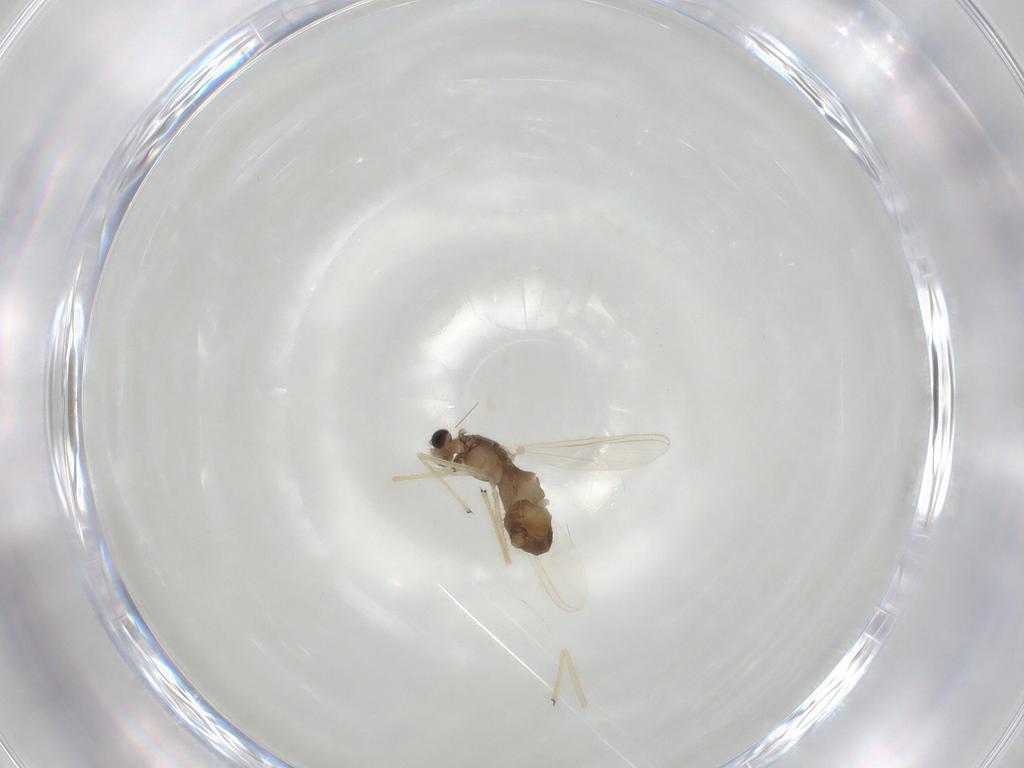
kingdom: Animalia
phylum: Arthropoda
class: Insecta
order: Diptera
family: Chironomidae
